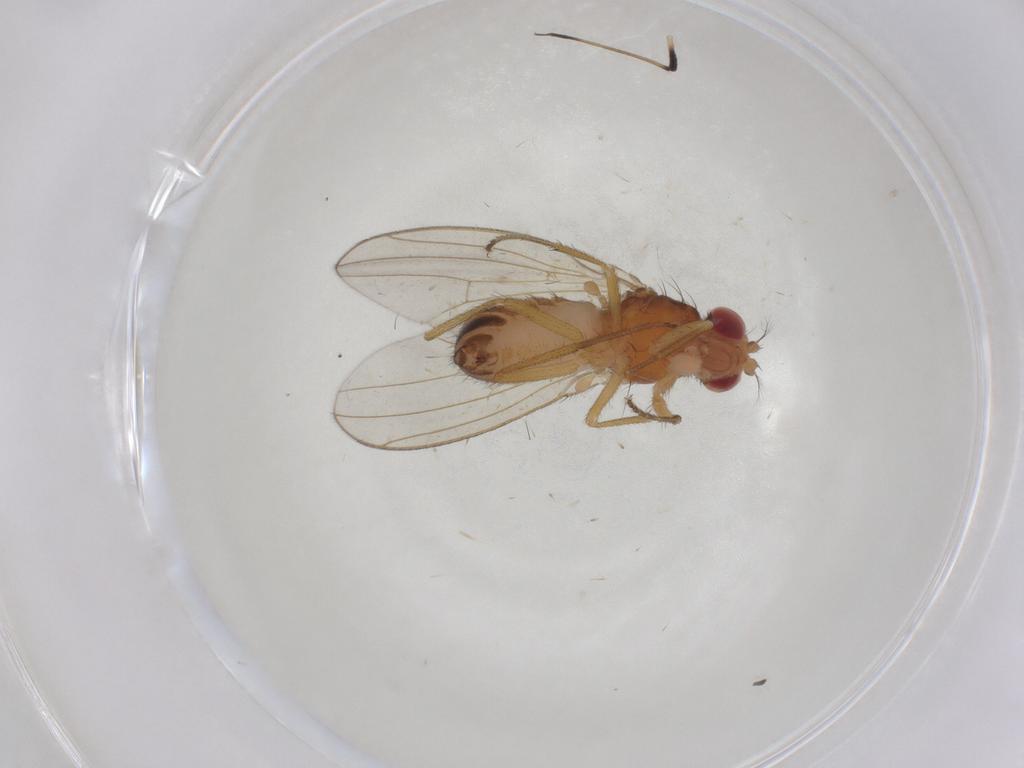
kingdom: Animalia
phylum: Arthropoda
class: Insecta
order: Diptera
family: Drosophilidae
